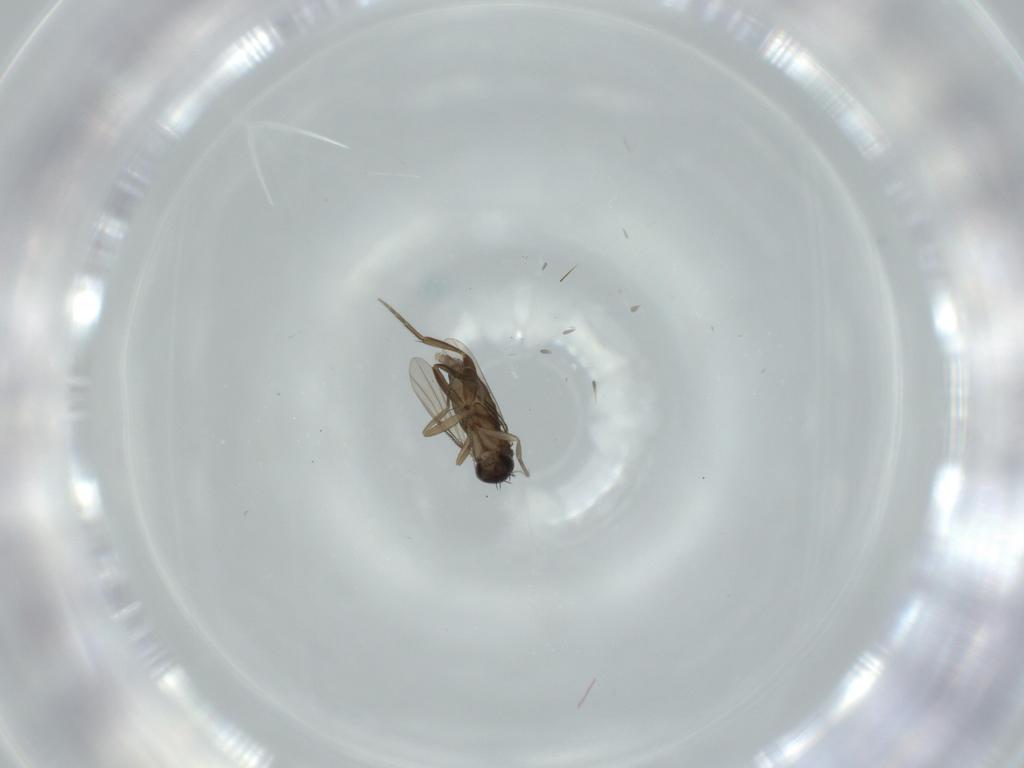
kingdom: Animalia
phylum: Arthropoda
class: Insecta
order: Diptera
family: Phoridae
